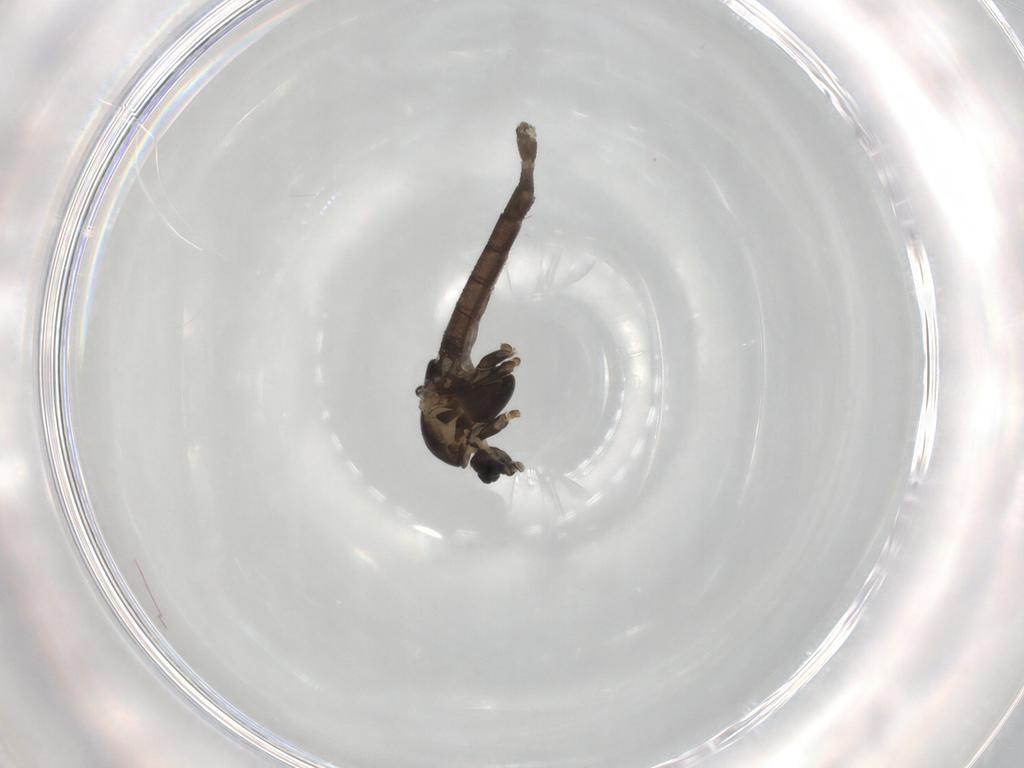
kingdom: Animalia
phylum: Arthropoda
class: Insecta
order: Diptera
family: Chironomidae
